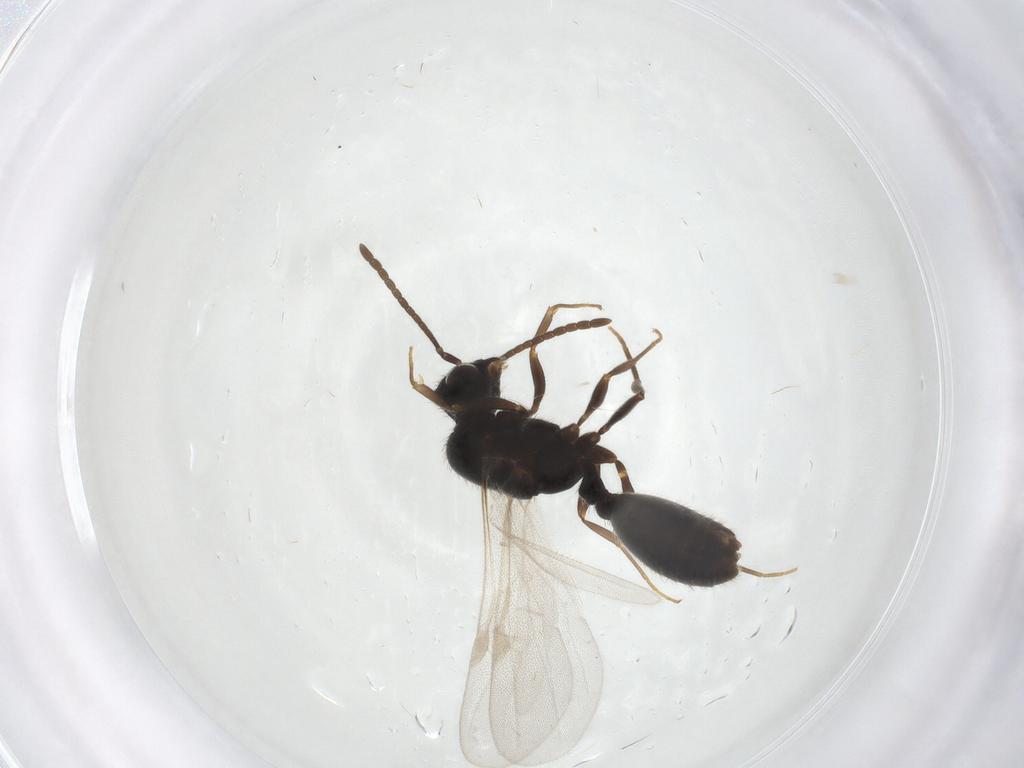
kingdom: Animalia
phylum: Arthropoda
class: Insecta
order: Hymenoptera
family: Formicidae
